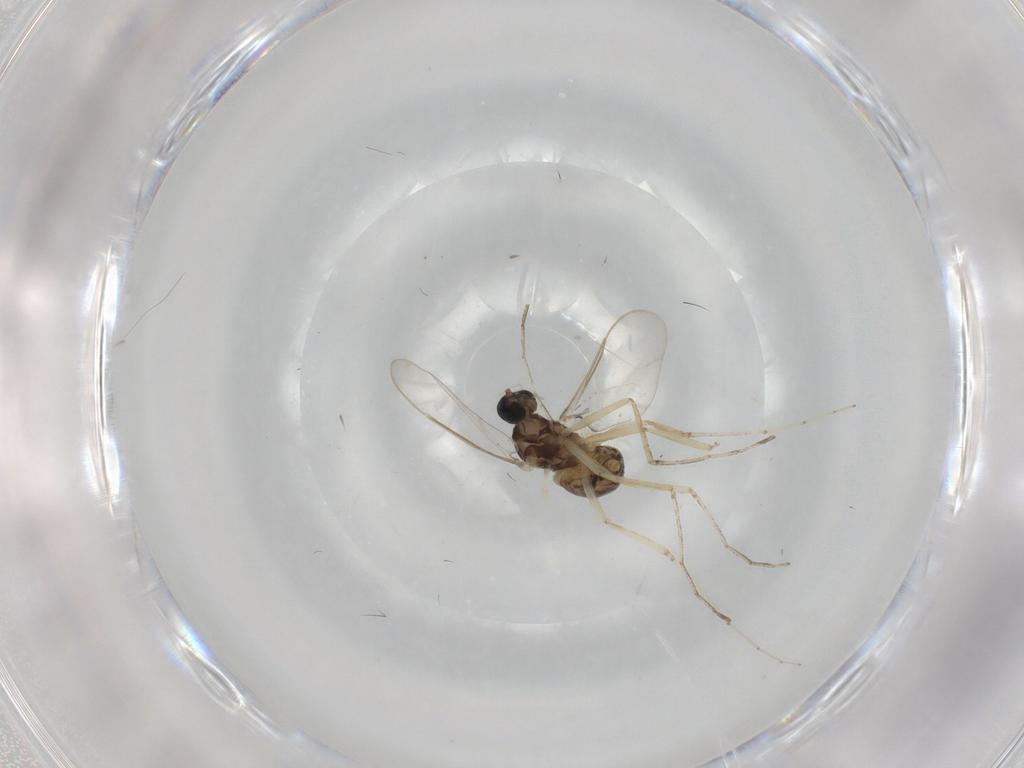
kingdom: Animalia
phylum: Arthropoda
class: Insecta
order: Diptera
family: Cecidomyiidae
